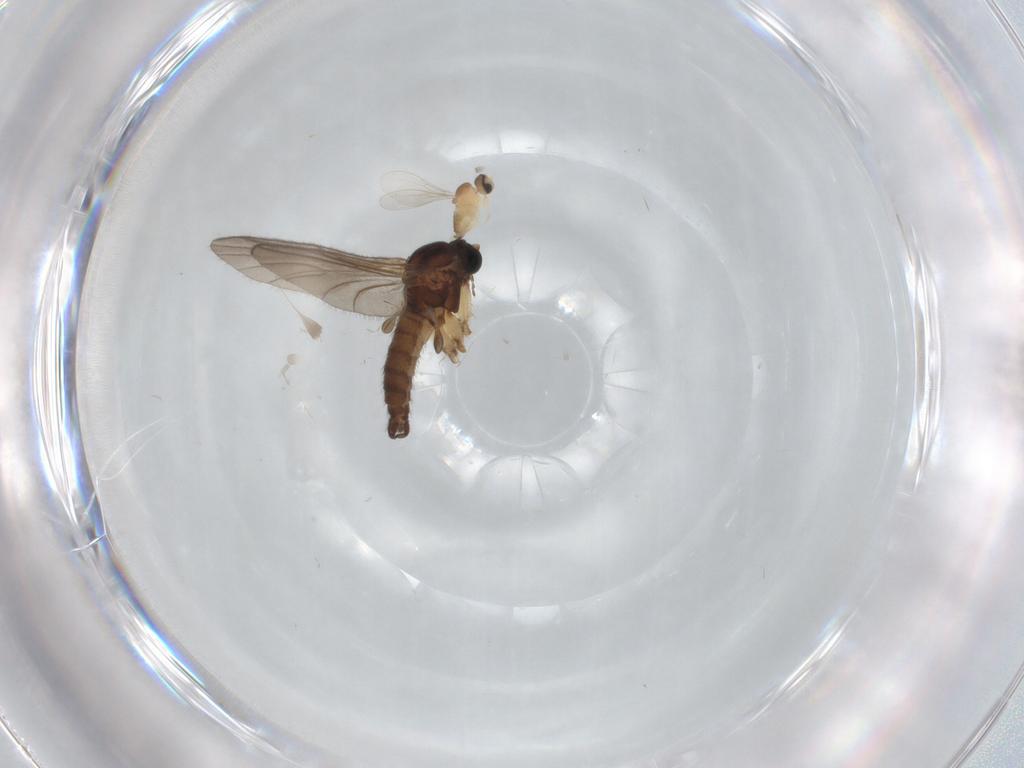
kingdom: Animalia
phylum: Arthropoda
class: Insecta
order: Diptera
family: Sciaridae
